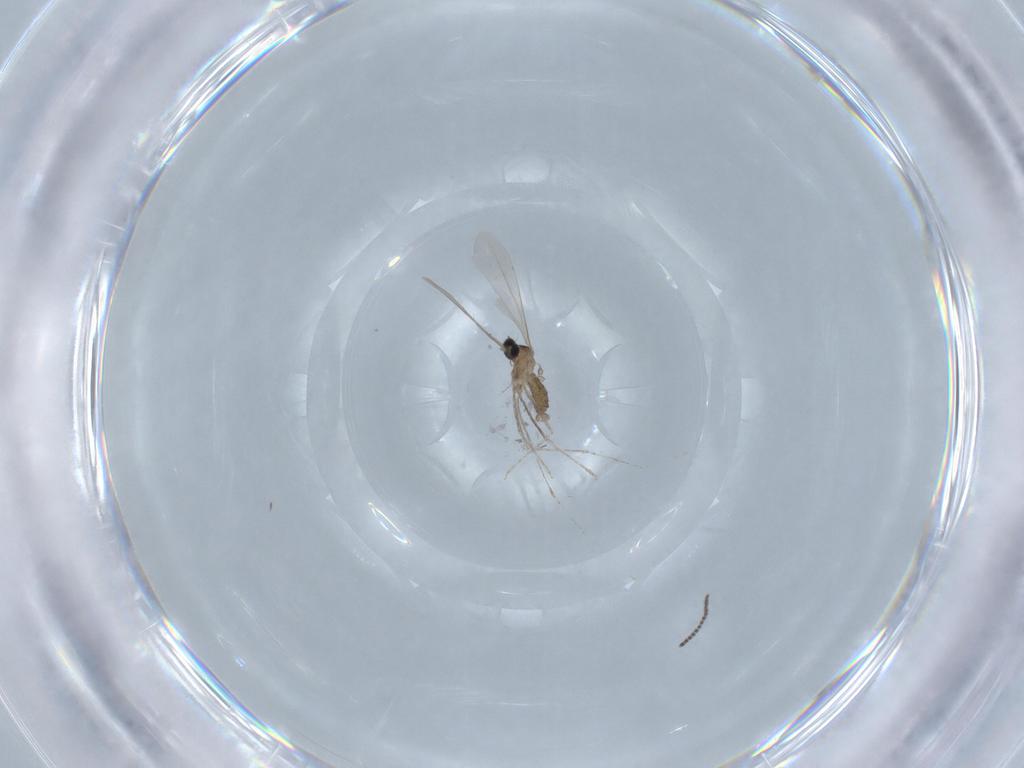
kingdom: Animalia
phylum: Arthropoda
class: Insecta
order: Diptera
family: Cecidomyiidae
